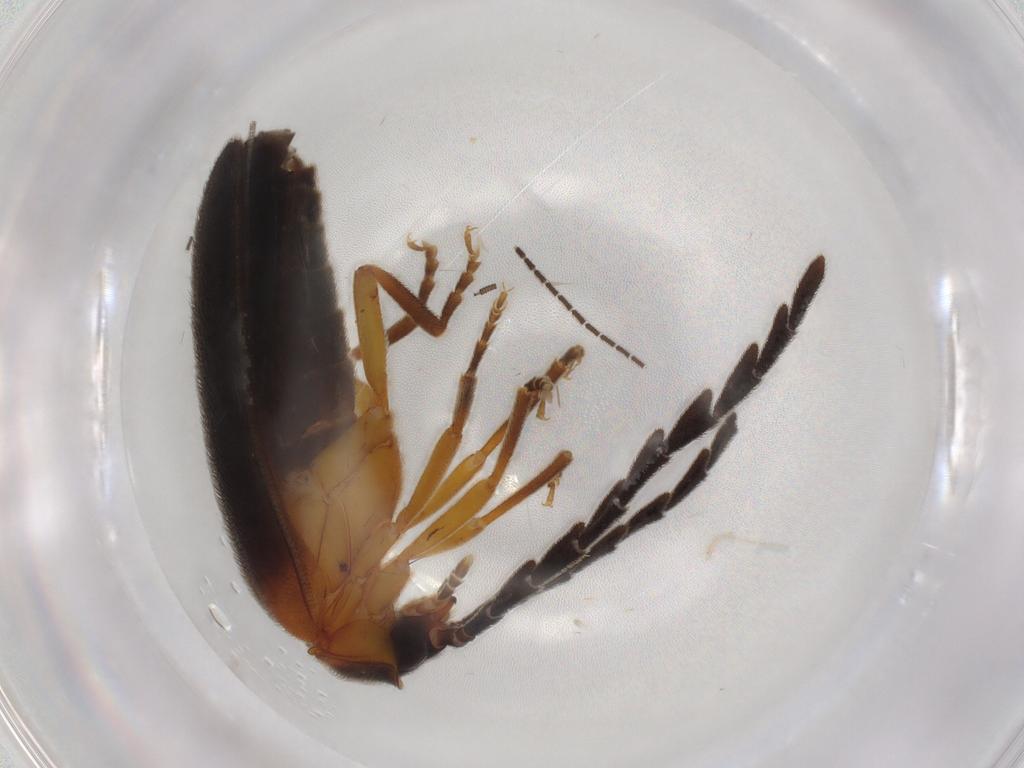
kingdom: Animalia
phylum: Arthropoda
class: Insecta
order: Coleoptera
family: Lampyridae
